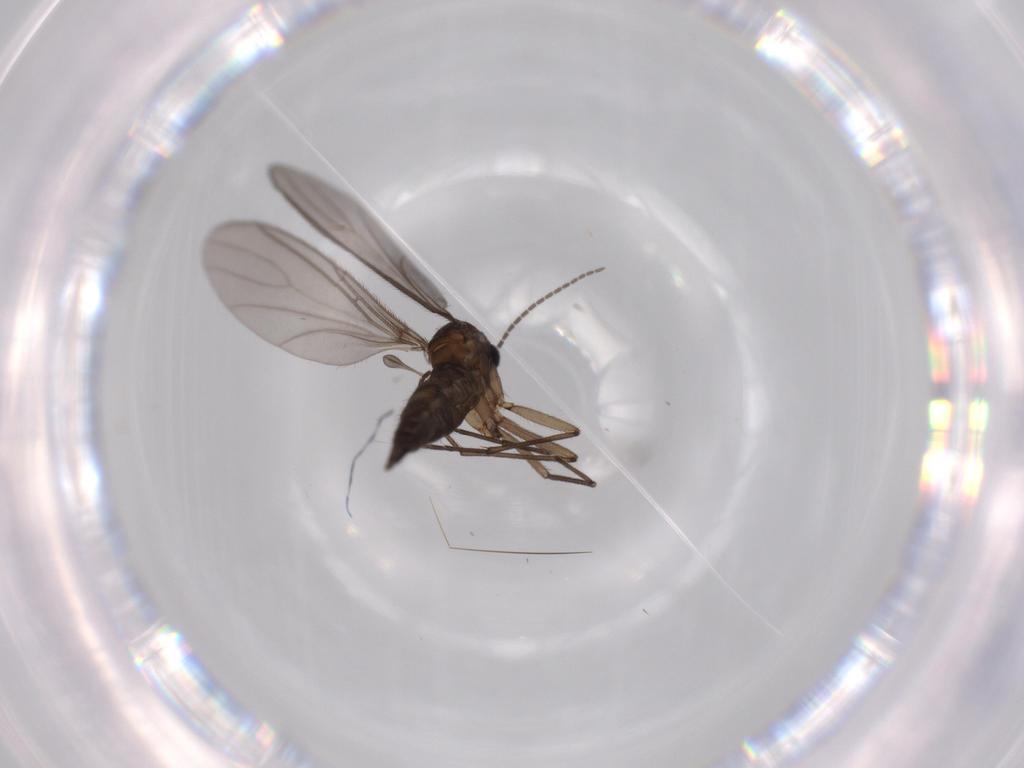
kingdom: Animalia
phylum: Arthropoda
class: Insecta
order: Diptera
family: Sciaridae
